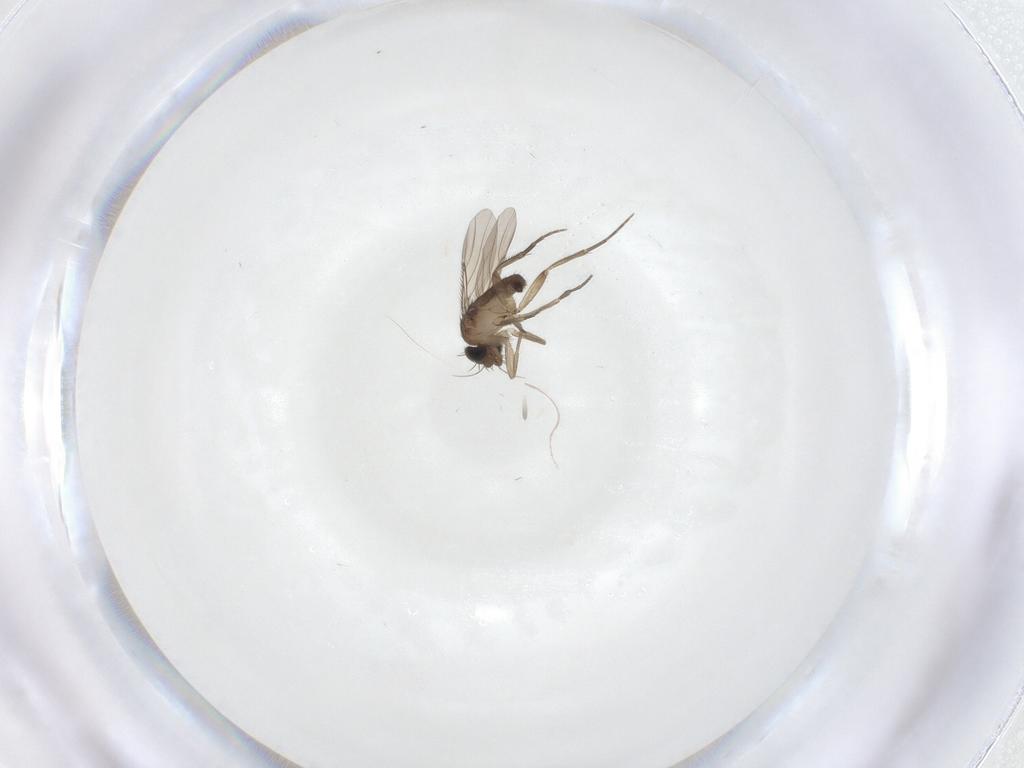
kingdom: Animalia
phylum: Arthropoda
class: Insecta
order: Diptera
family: Phoridae
